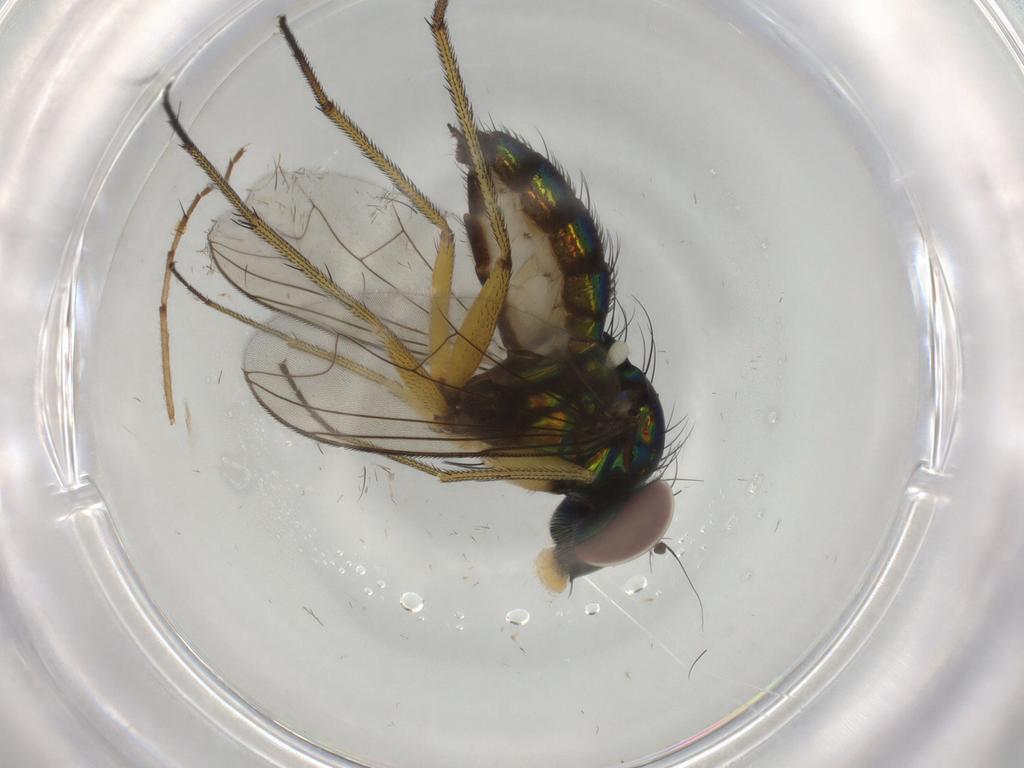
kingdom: Animalia
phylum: Arthropoda
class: Insecta
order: Diptera
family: Dolichopodidae
